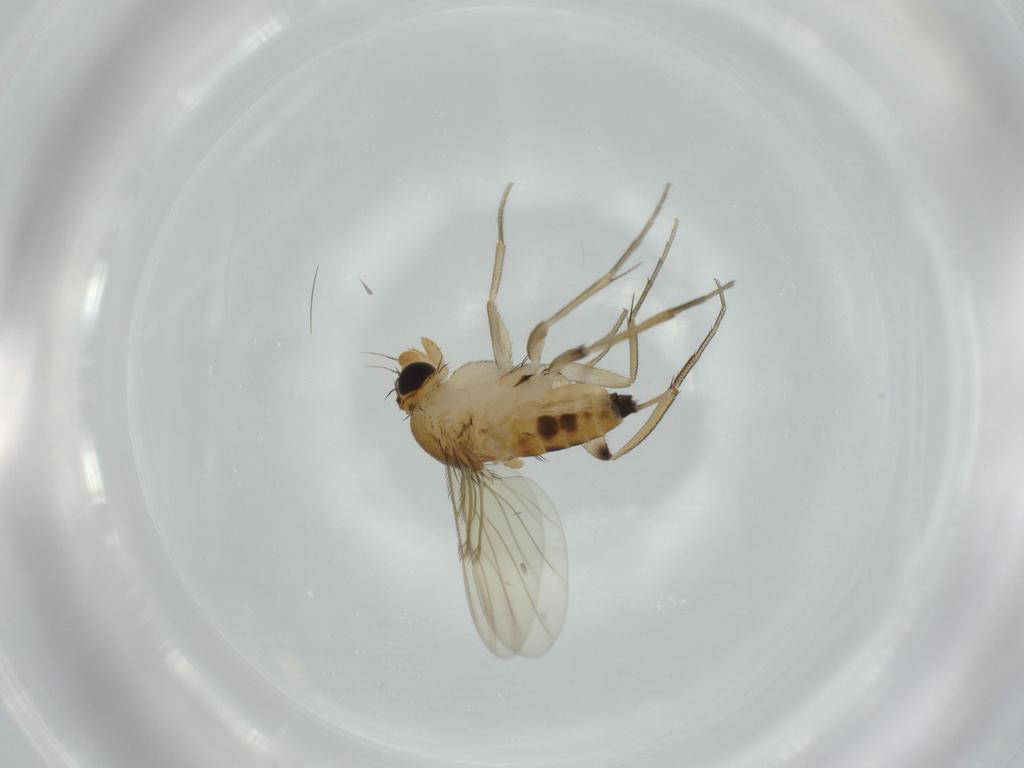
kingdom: Animalia
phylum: Arthropoda
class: Insecta
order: Diptera
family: Phoridae
